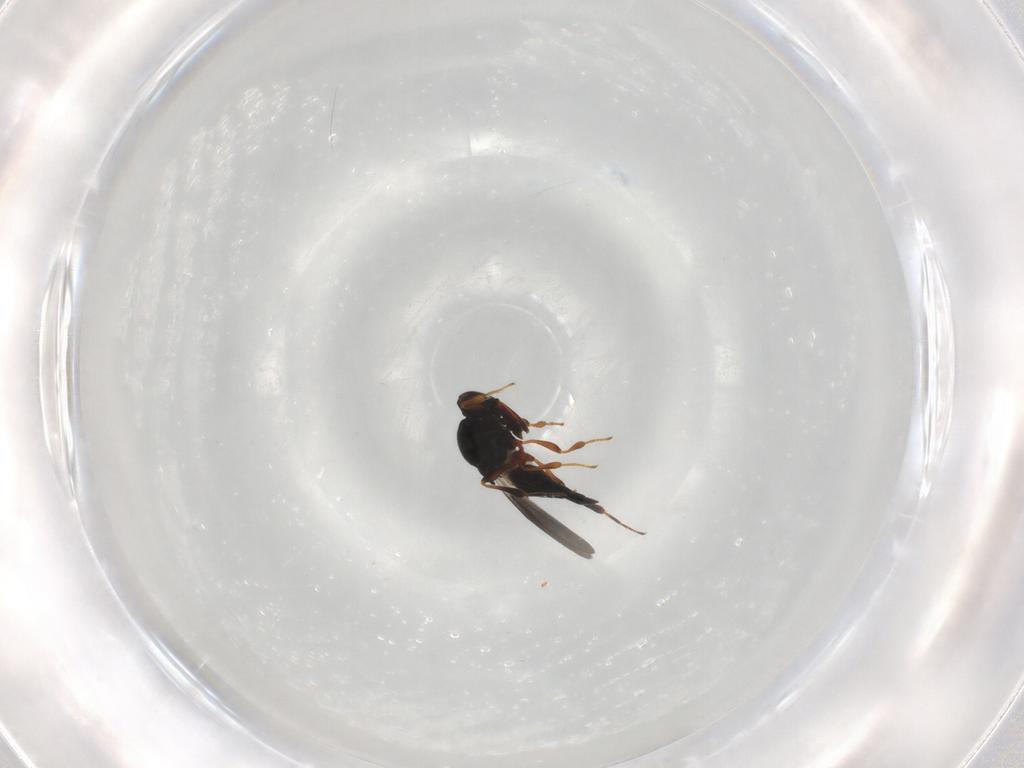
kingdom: Animalia
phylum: Arthropoda
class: Insecta
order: Hymenoptera
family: Platygastridae
